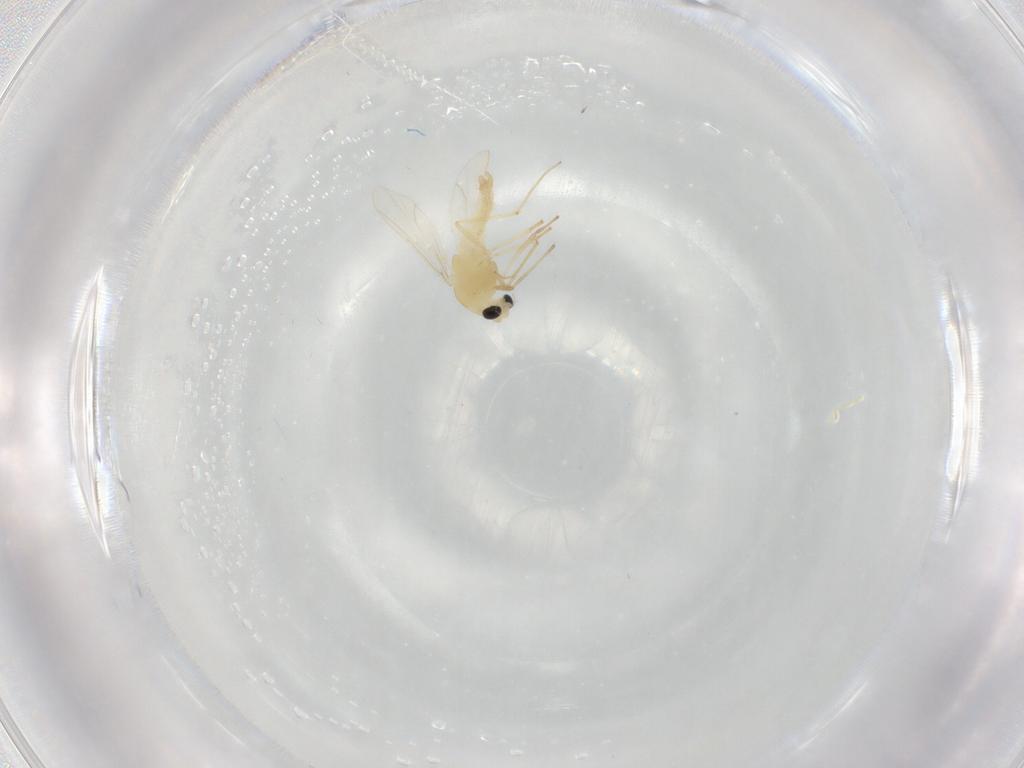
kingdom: Animalia
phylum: Arthropoda
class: Insecta
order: Diptera
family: Chironomidae
